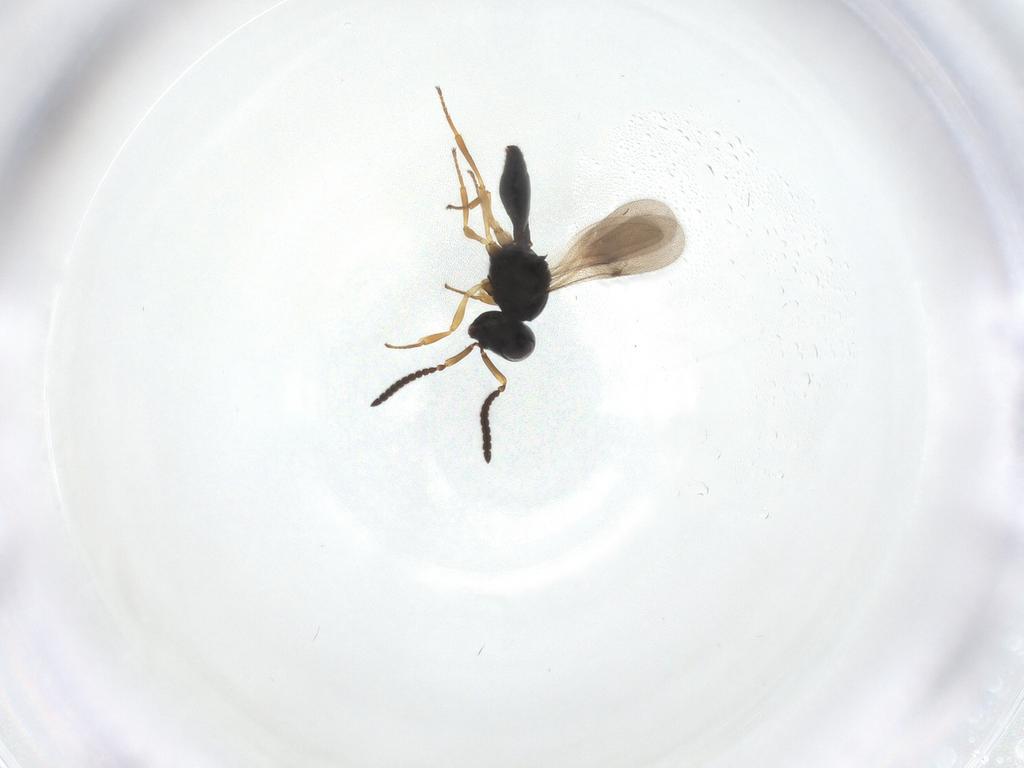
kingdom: Animalia
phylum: Arthropoda
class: Insecta
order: Hymenoptera
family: Scelionidae
